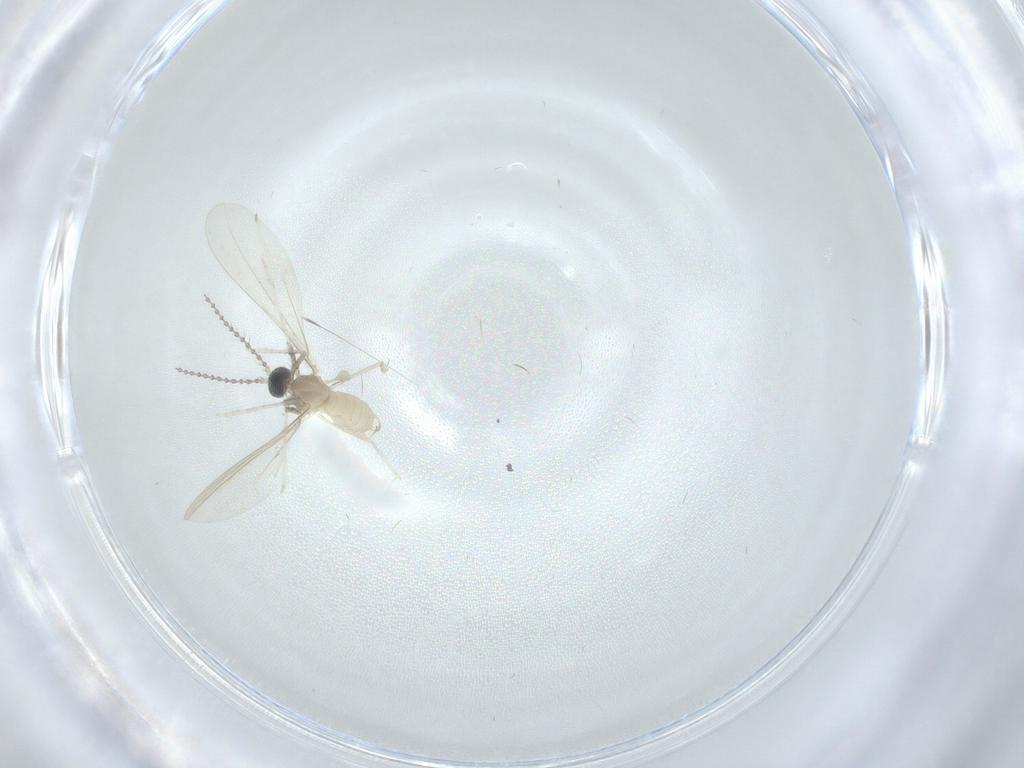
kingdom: Animalia
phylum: Arthropoda
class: Insecta
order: Diptera
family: Cecidomyiidae
